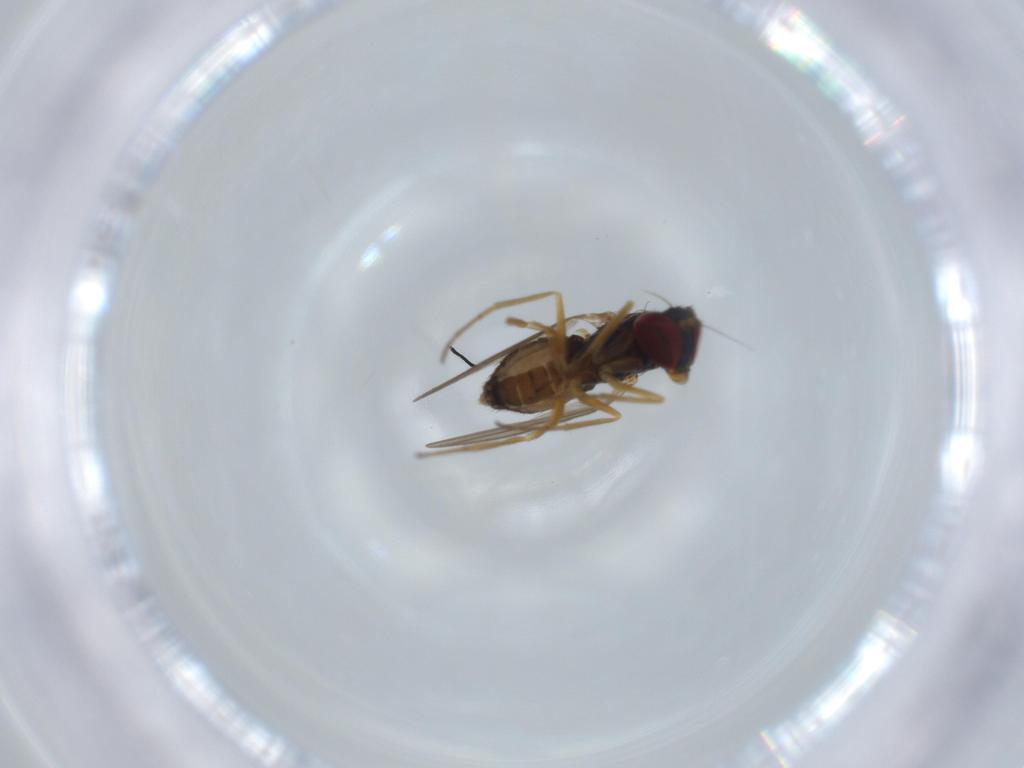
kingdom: Animalia
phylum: Arthropoda
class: Insecta
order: Diptera
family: Dolichopodidae
